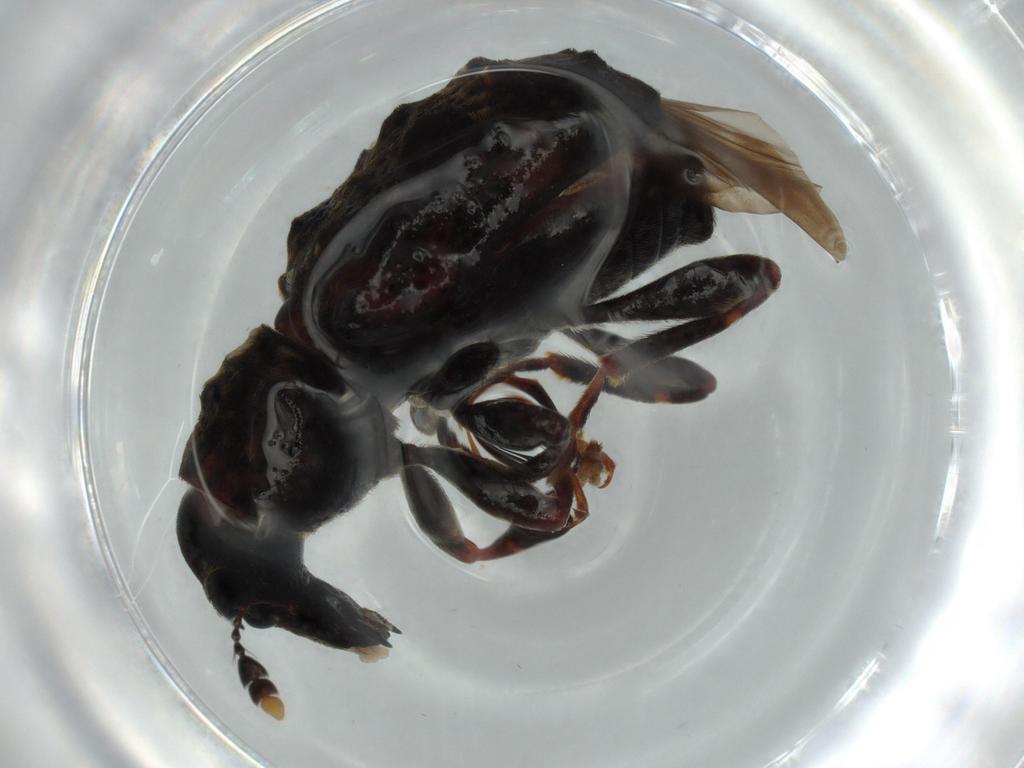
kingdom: Animalia
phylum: Arthropoda
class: Insecta
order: Coleoptera
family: Anthribidae
